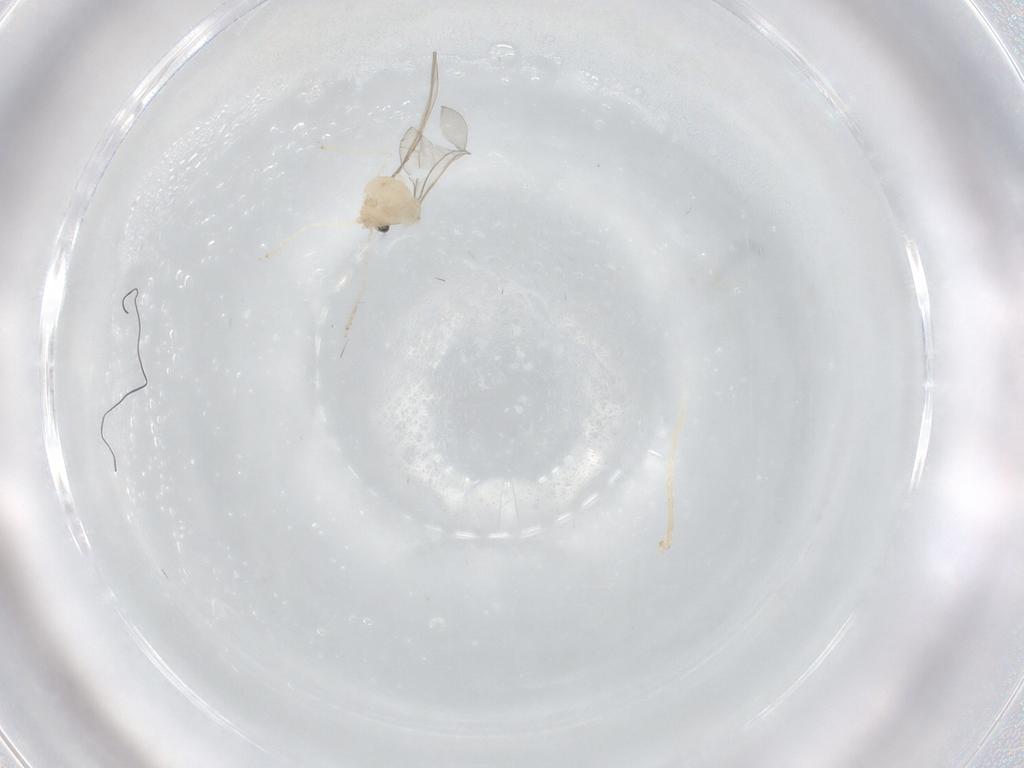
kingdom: Animalia
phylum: Arthropoda
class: Insecta
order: Diptera
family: Cecidomyiidae
